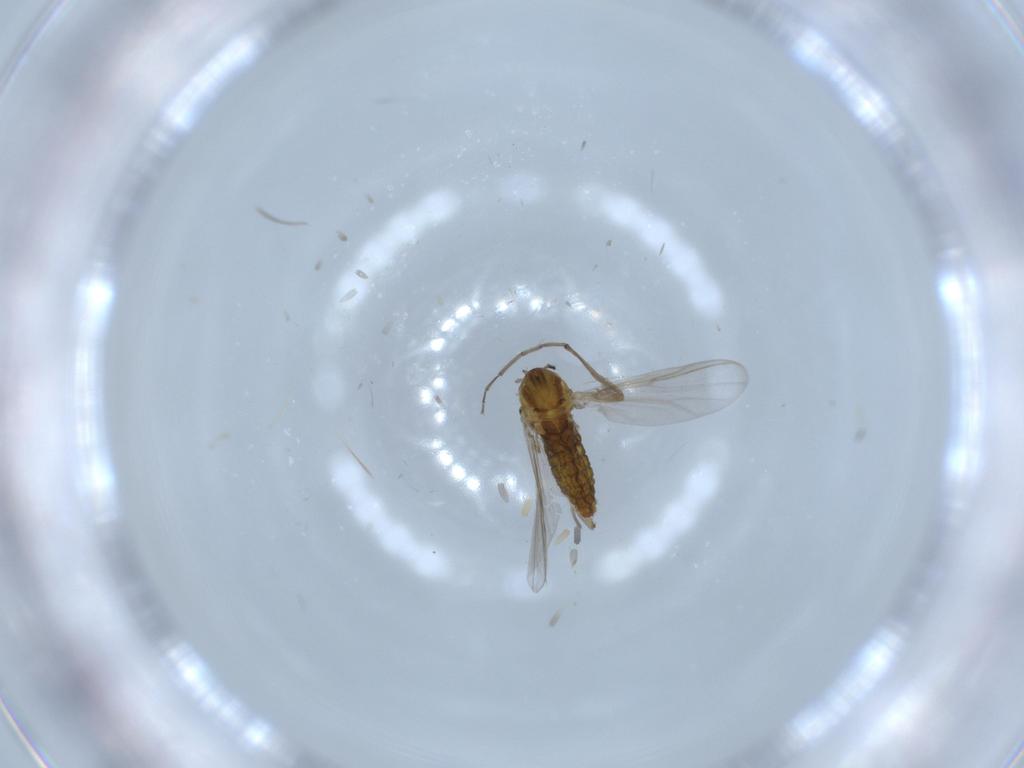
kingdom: Animalia
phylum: Arthropoda
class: Insecta
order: Diptera
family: Chironomidae
